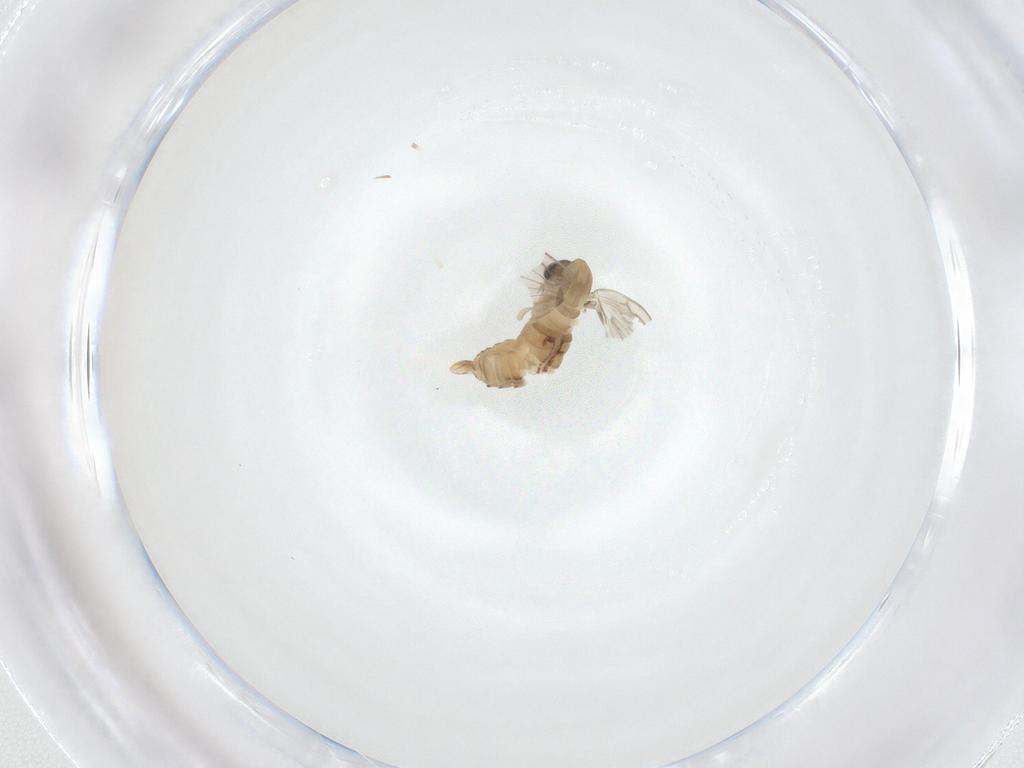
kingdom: Animalia
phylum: Arthropoda
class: Insecta
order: Diptera
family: Psychodidae
